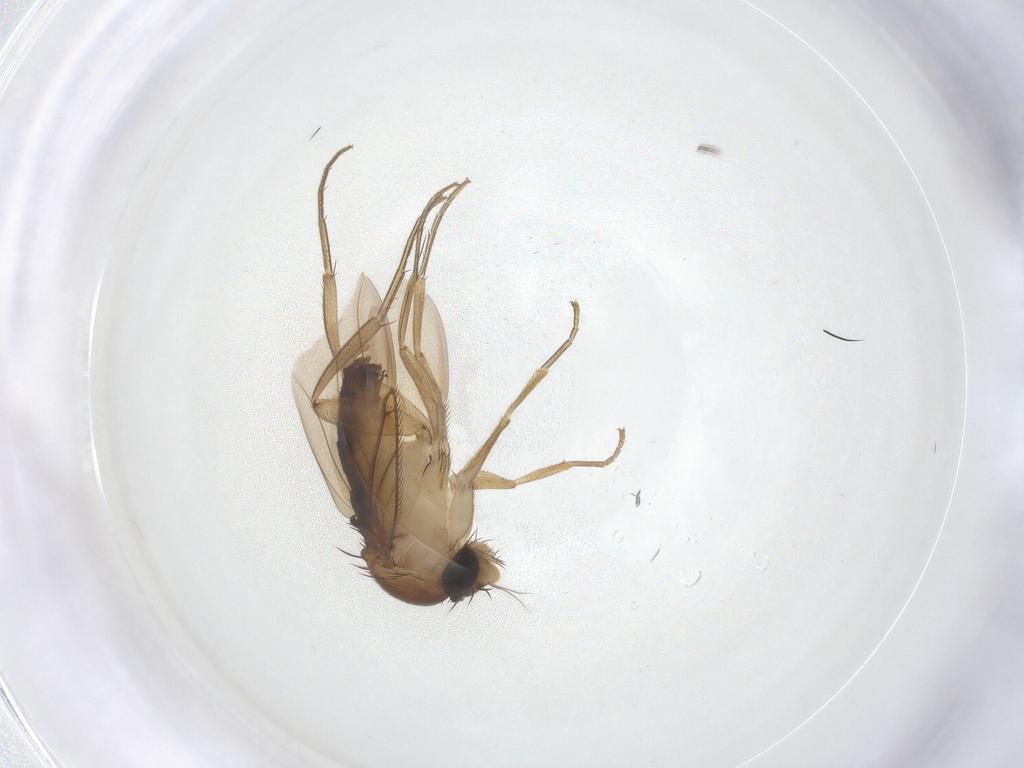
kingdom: Animalia
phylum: Arthropoda
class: Insecta
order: Diptera
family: Phoridae
